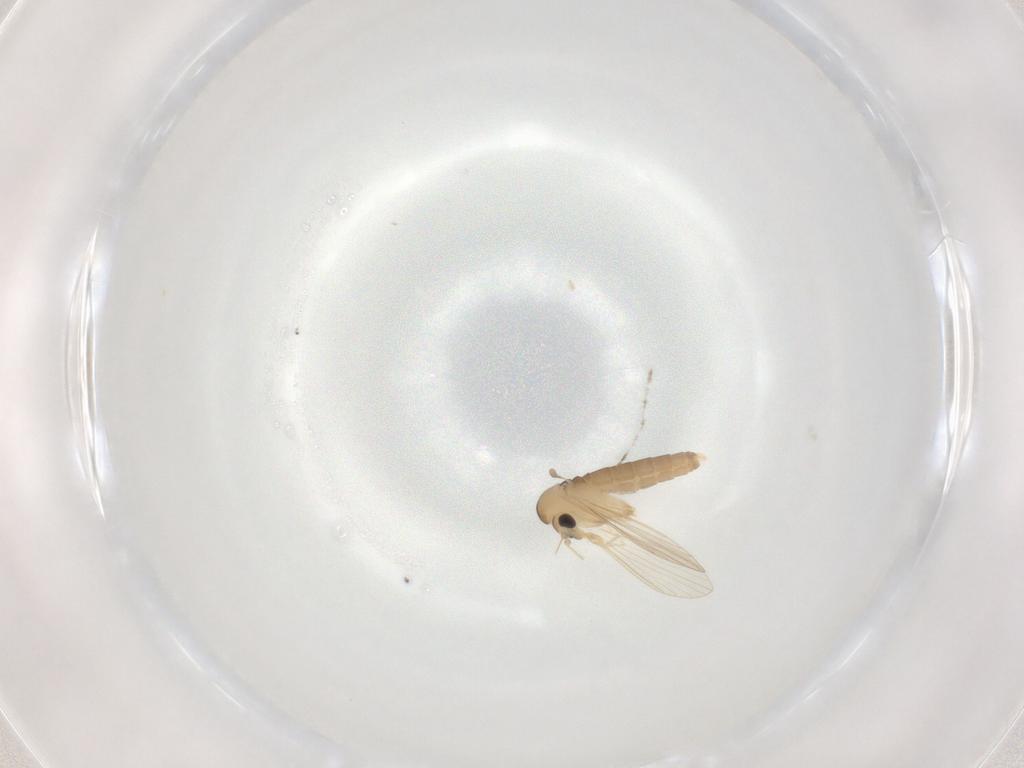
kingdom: Animalia
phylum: Arthropoda
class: Insecta
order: Diptera
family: Psychodidae
